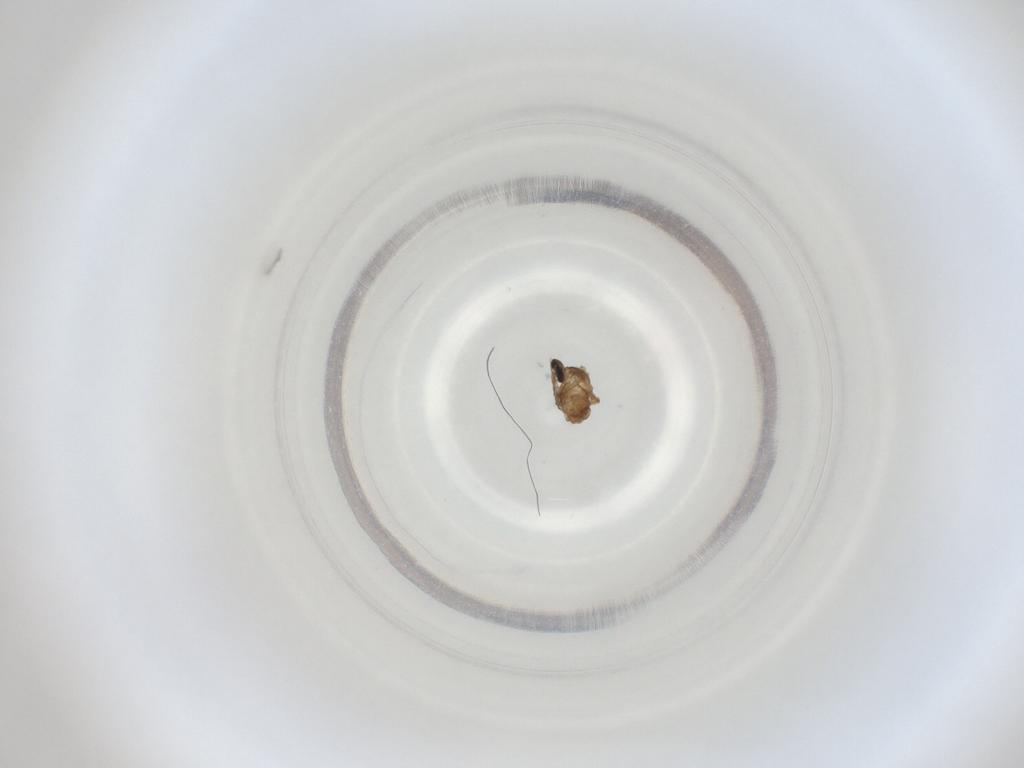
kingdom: Animalia
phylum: Arthropoda
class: Insecta
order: Diptera
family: Cecidomyiidae
